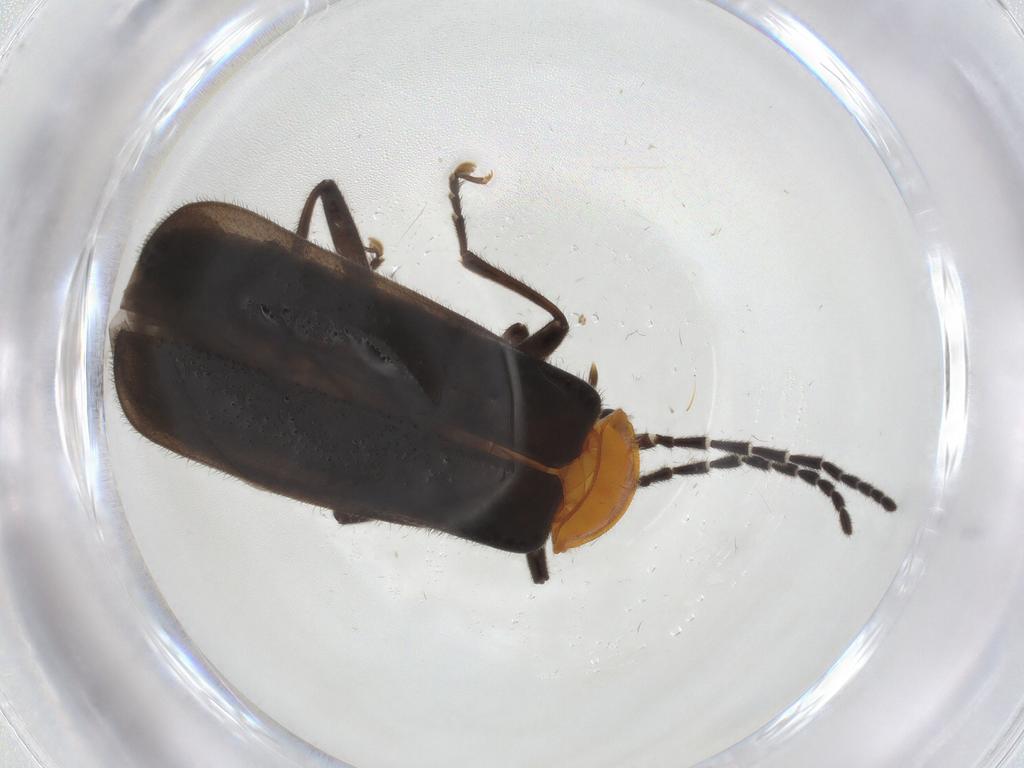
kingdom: Animalia
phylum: Arthropoda
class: Insecta
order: Coleoptera
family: Cantharidae
